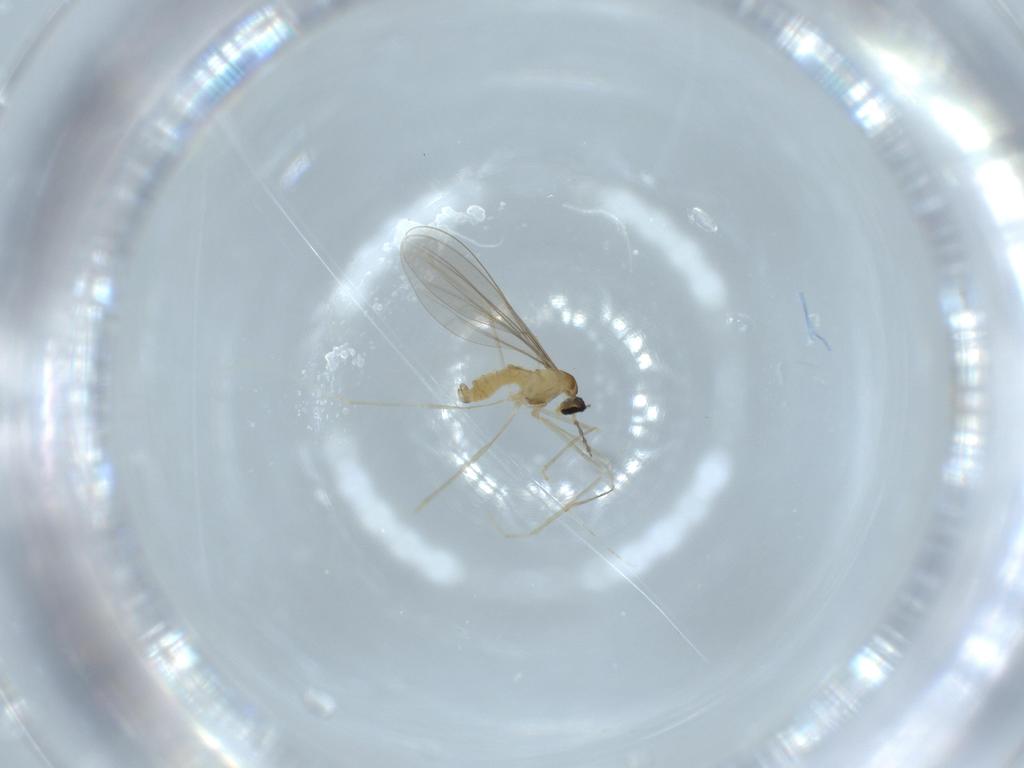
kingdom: Animalia
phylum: Arthropoda
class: Insecta
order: Diptera
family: Cecidomyiidae
